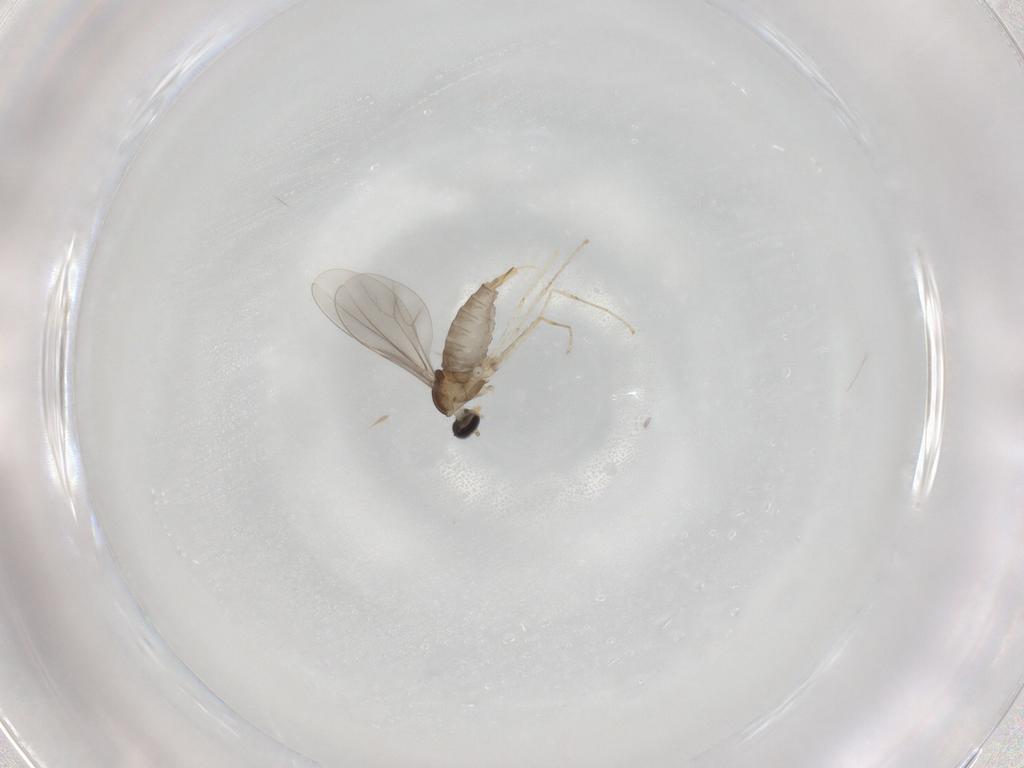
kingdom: Animalia
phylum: Arthropoda
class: Insecta
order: Diptera
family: Cecidomyiidae
